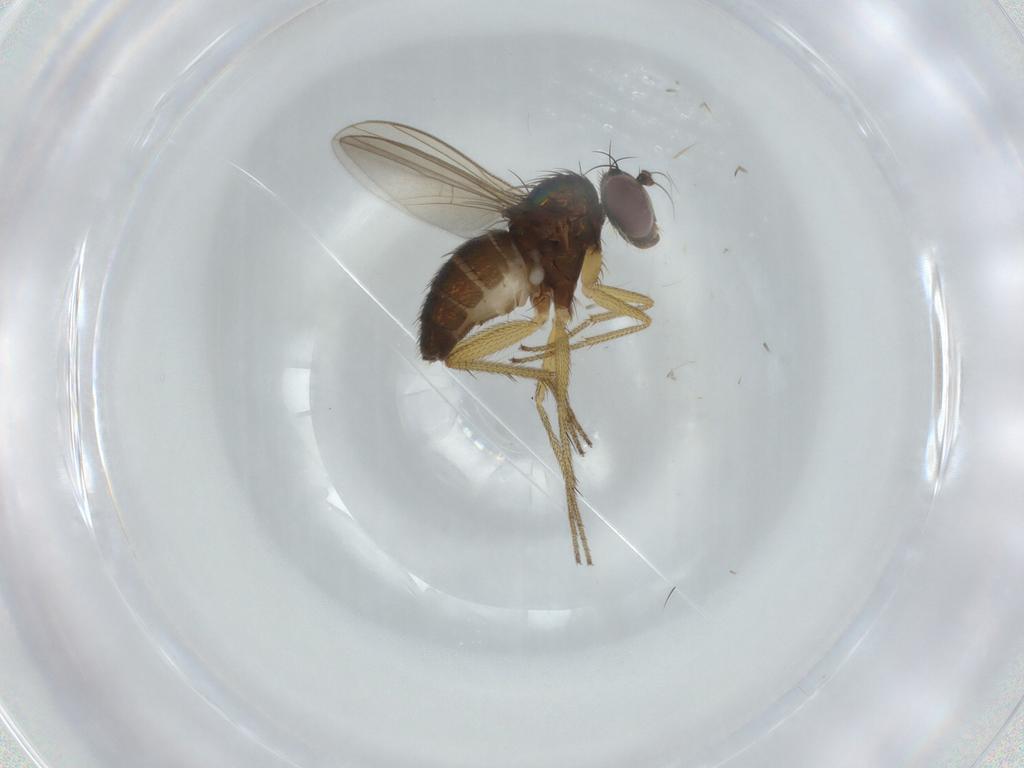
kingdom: Animalia
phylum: Arthropoda
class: Insecta
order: Diptera
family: Dolichopodidae
